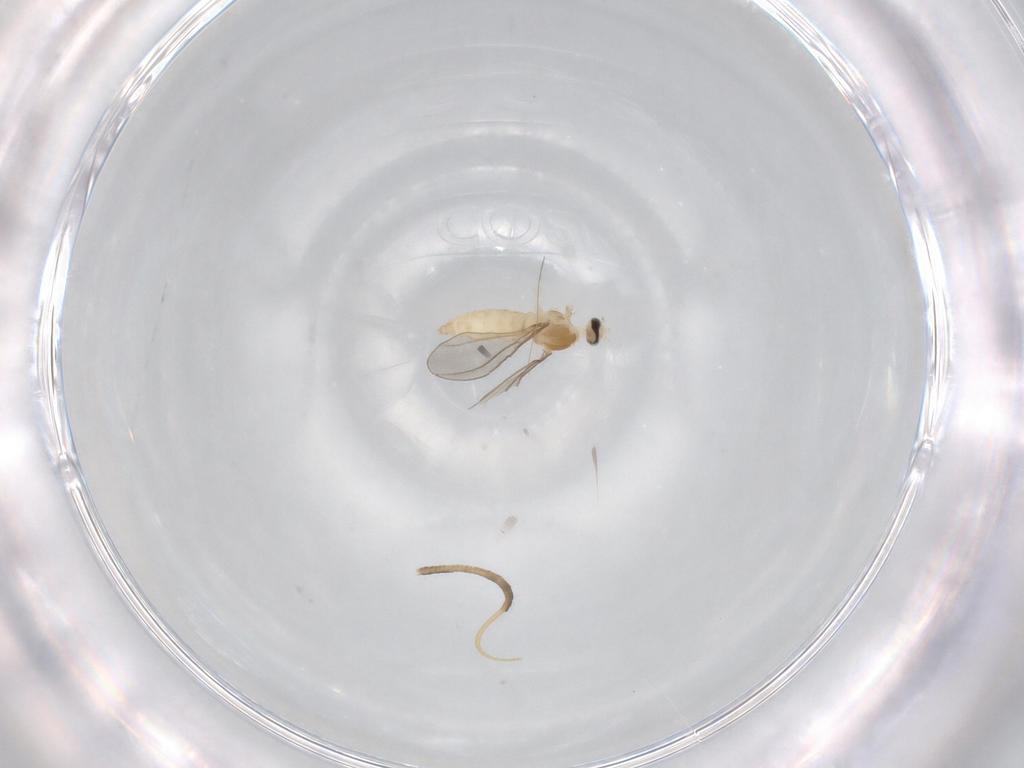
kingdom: Animalia
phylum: Arthropoda
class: Insecta
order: Diptera
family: Cecidomyiidae
